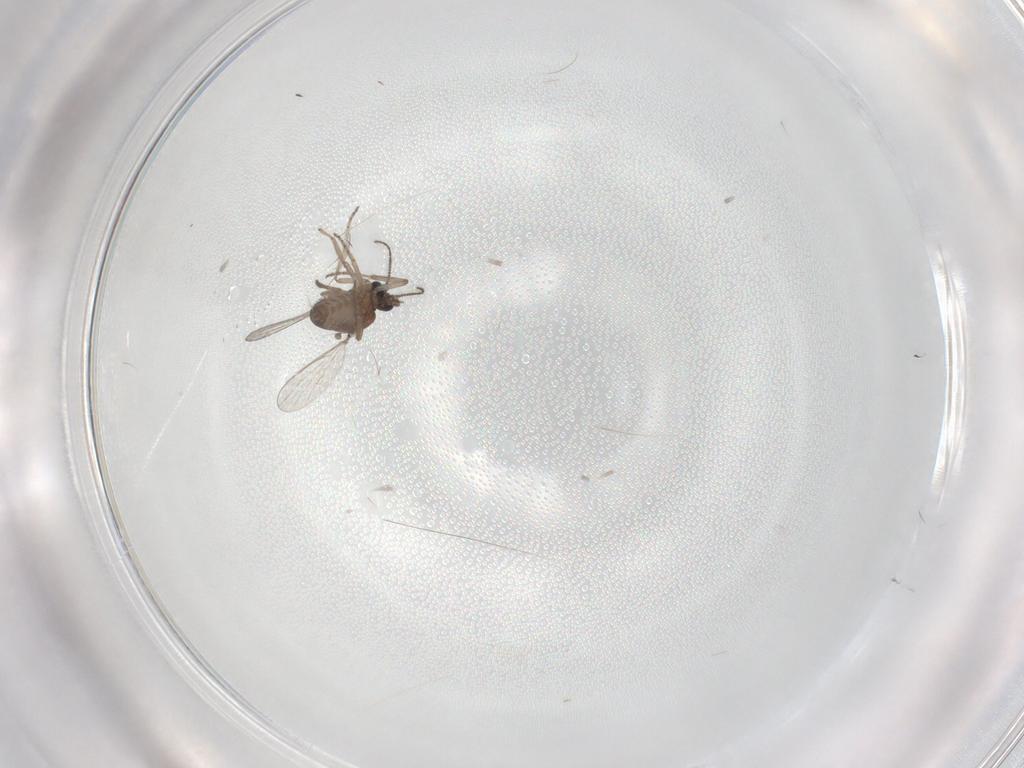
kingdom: Animalia
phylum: Arthropoda
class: Insecta
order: Diptera
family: Ceratopogonidae
